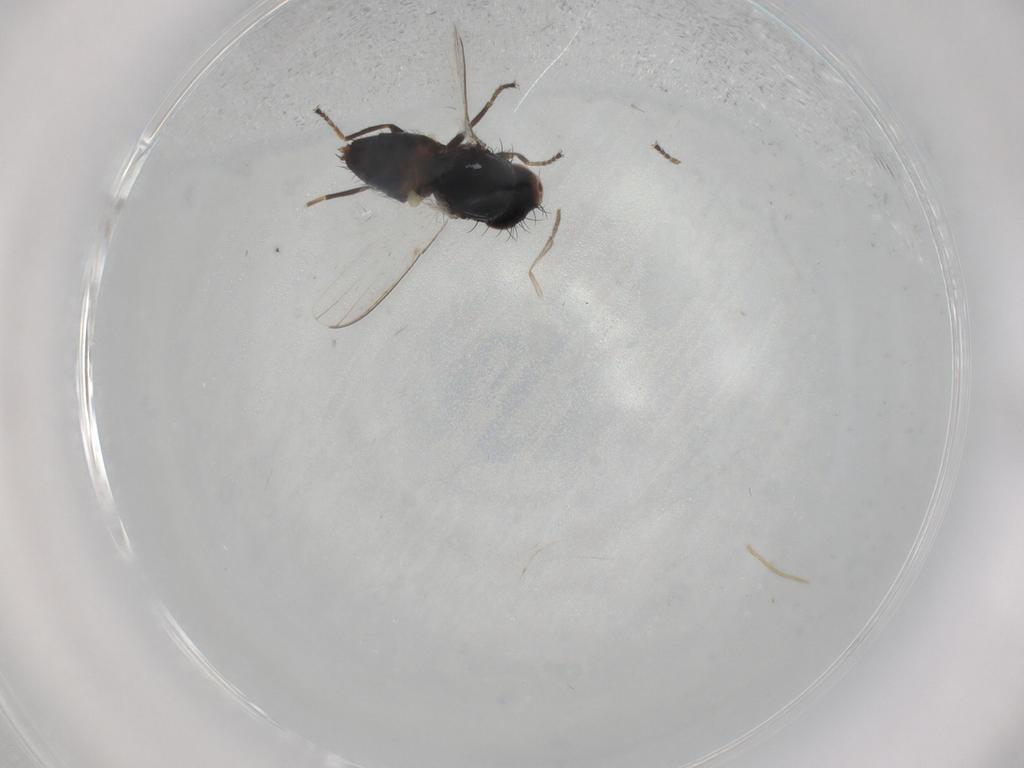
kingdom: Animalia
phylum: Arthropoda
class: Insecta
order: Diptera
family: Milichiidae
